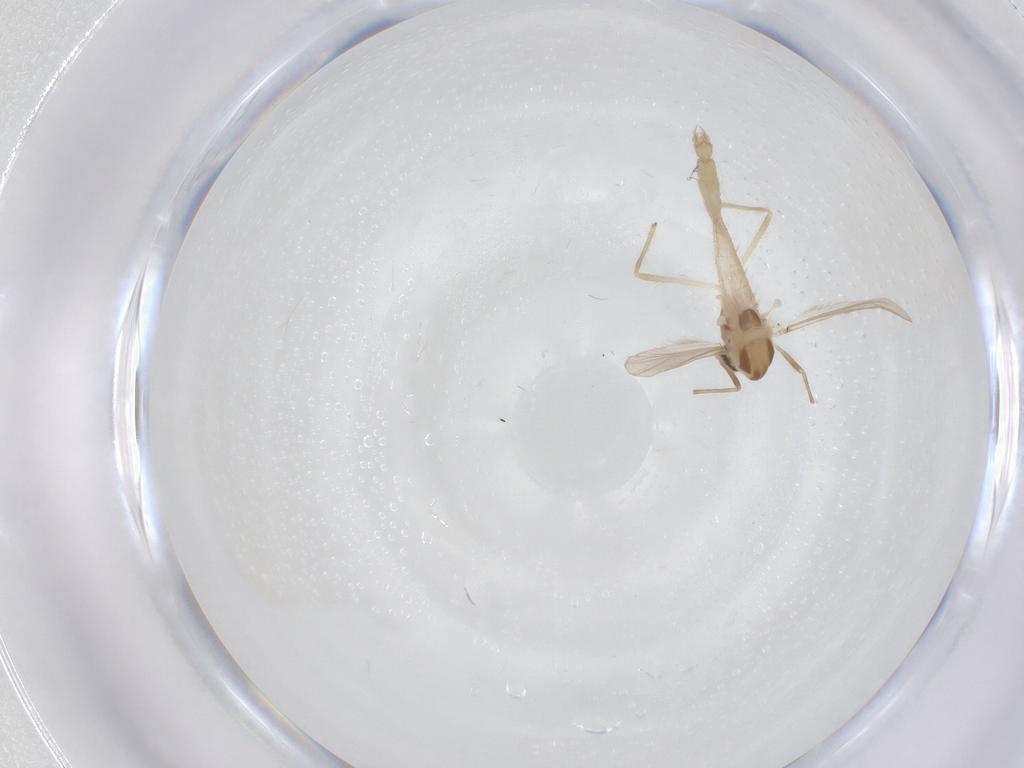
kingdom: Animalia
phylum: Arthropoda
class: Insecta
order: Diptera
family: Chironomidae
